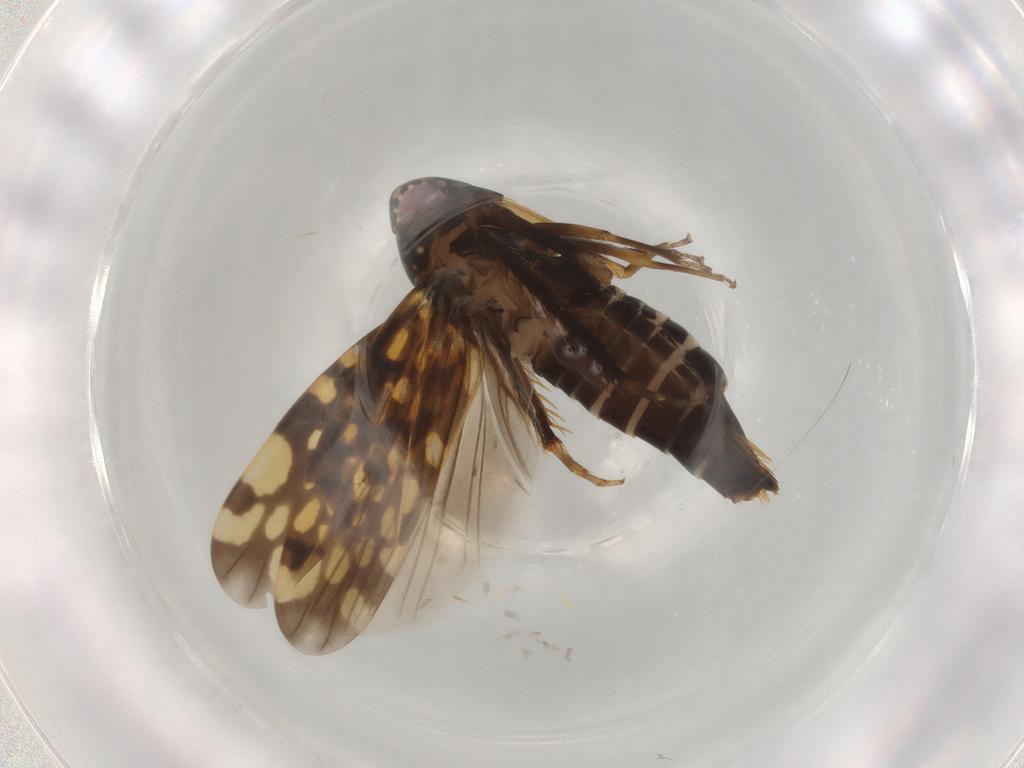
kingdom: Animalia
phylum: Arthropoda
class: Insecta
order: Hemiptera
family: Cicadellidae
